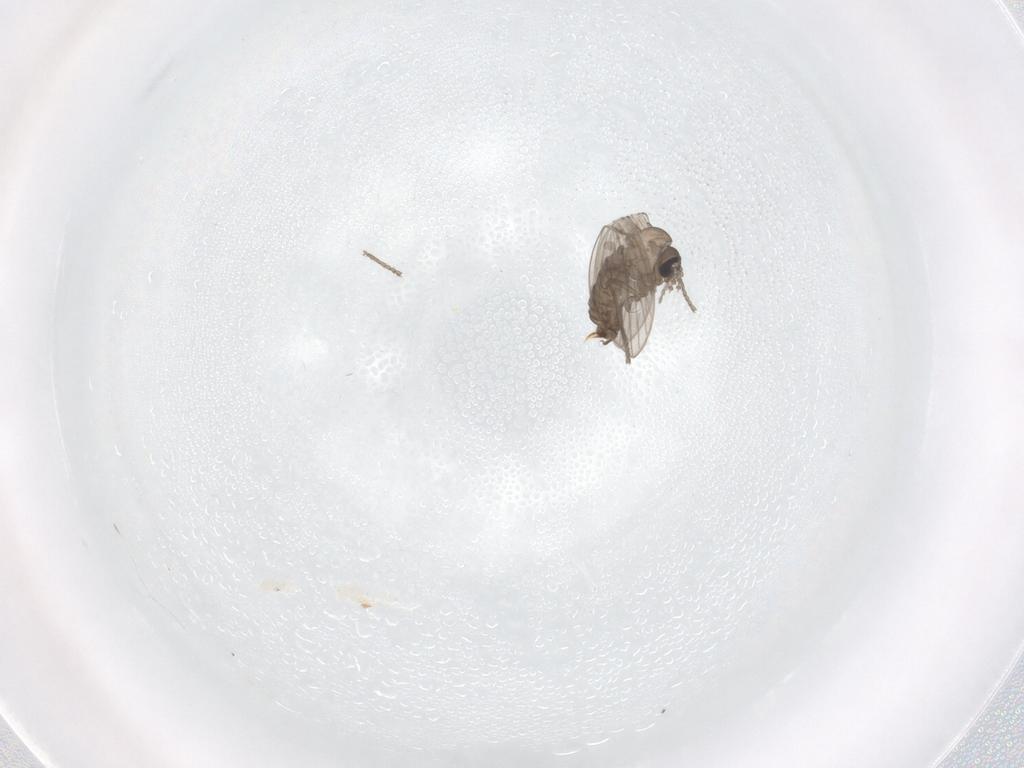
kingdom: Animalia
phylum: Arthropoda
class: Insecta
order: Diptera
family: Psychodidae
